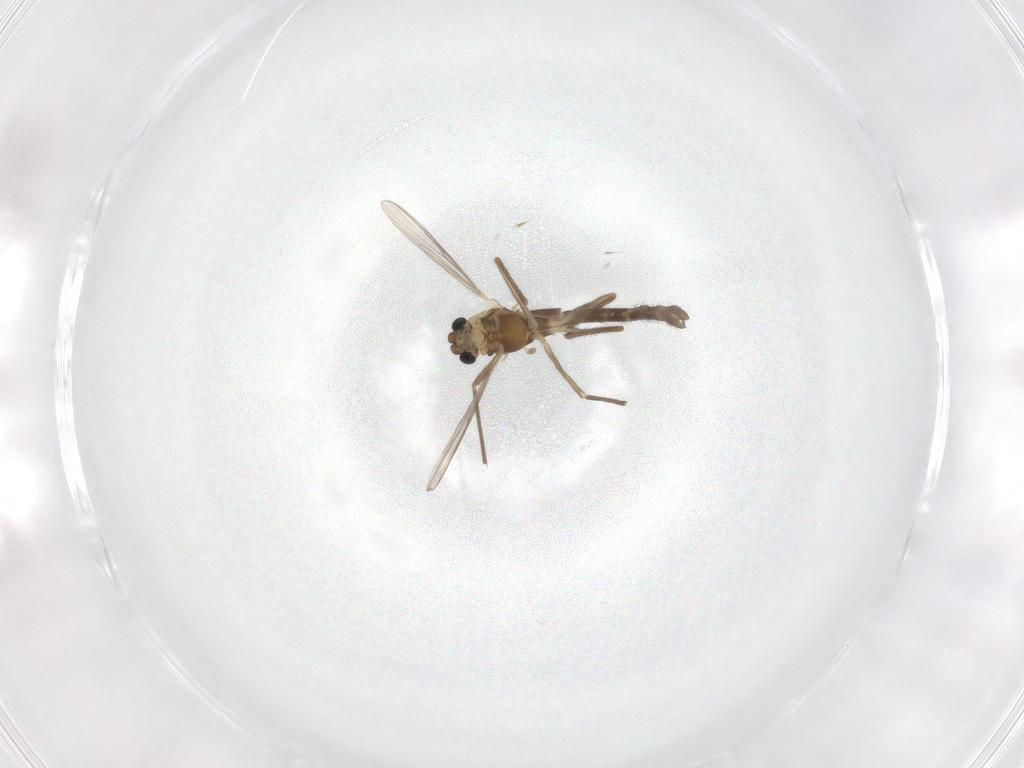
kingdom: Animalia
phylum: Arthropoda
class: Insecta
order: Diptera
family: Chironomidae
